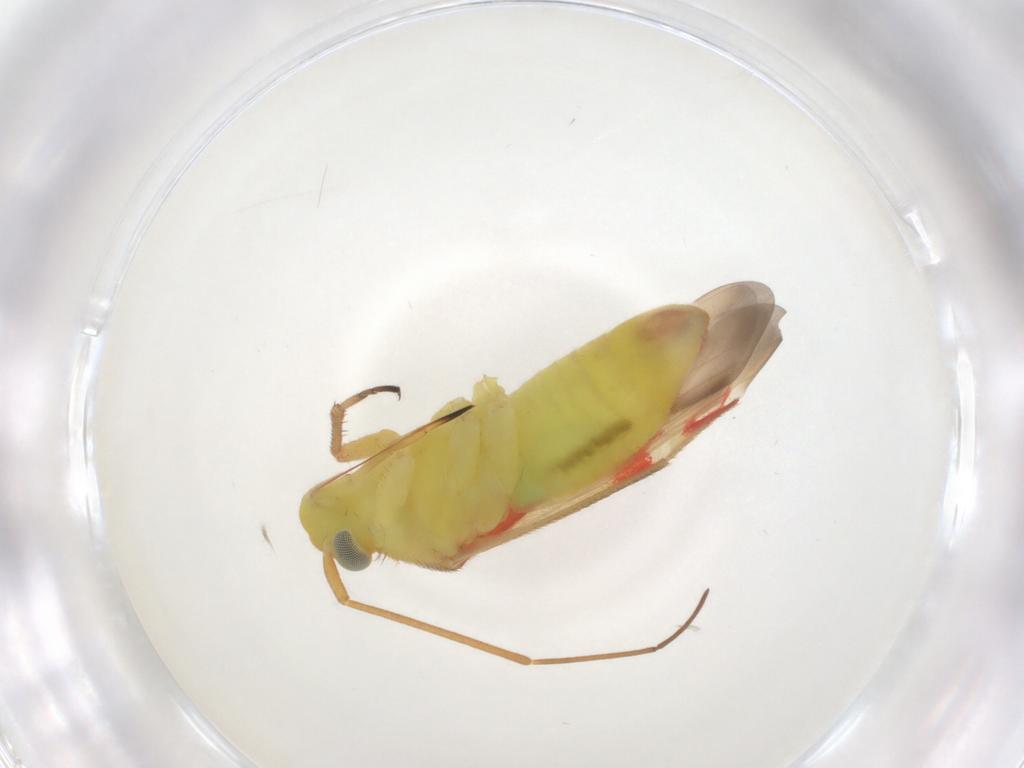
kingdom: Animalia
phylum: Arthropoda
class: Insecta
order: Hemiptera
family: Miridae
